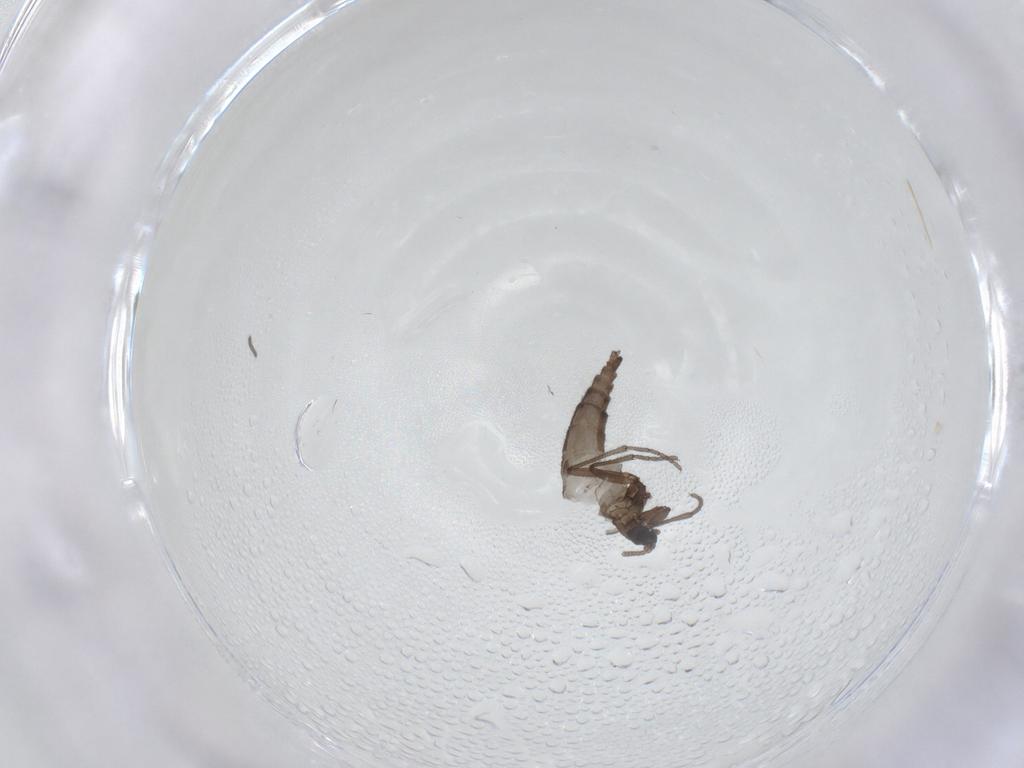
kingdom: Animalia
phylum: Arthropoda
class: Insecta
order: Diptera
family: Sciaridae
